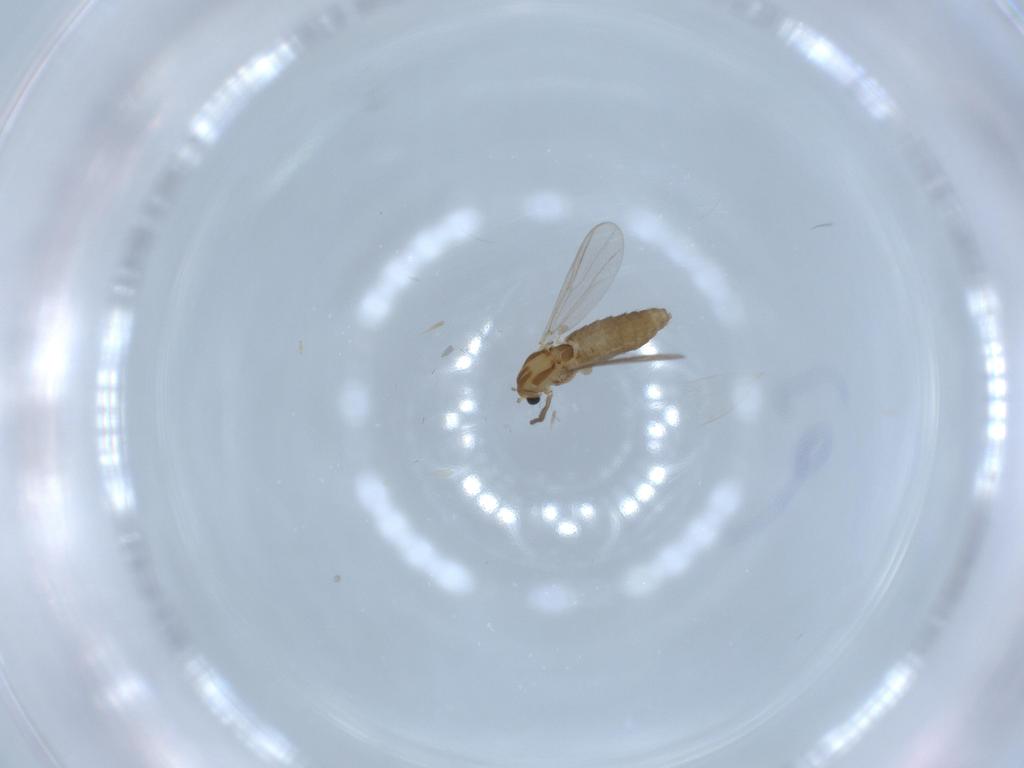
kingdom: Animalia
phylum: Arthropoda
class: Insecta
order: Diptera
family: Chironomidae
